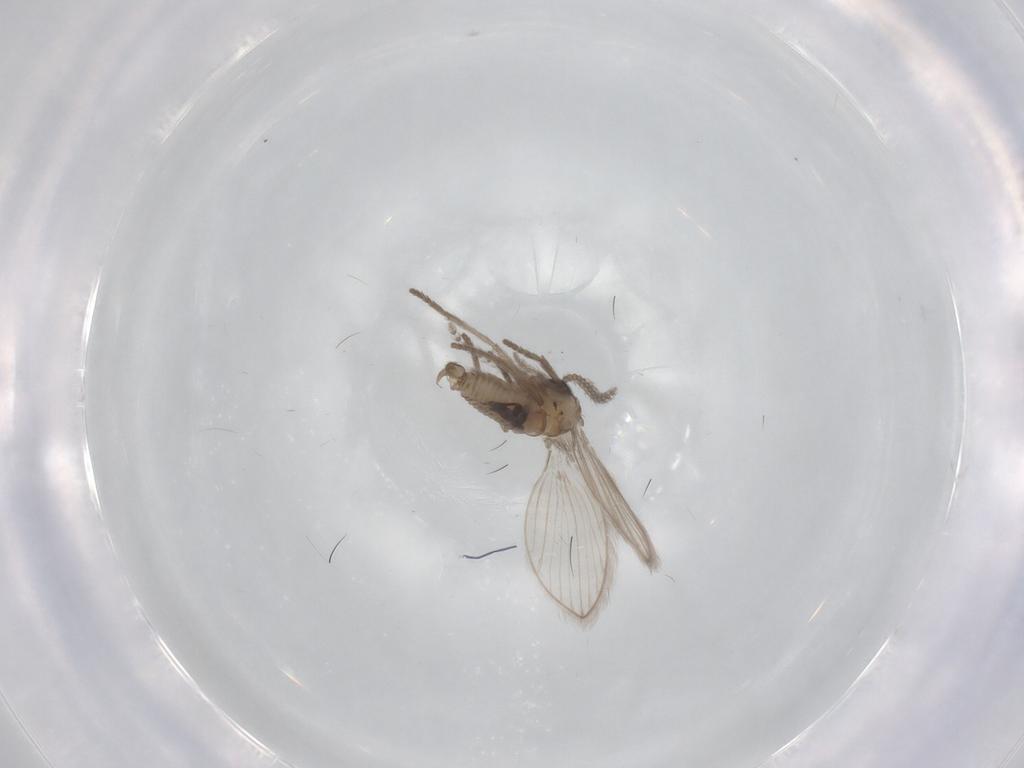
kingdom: Animalia
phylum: Arthropoda
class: Insecta
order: Diptera
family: Psychodidae
